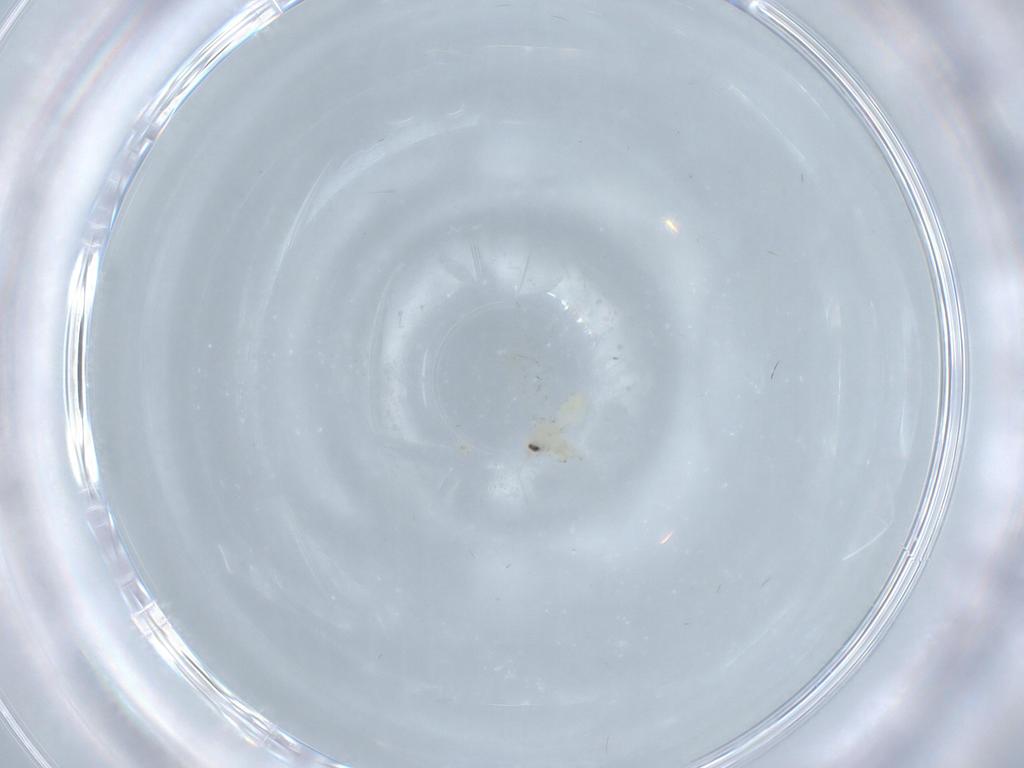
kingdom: Animalia
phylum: Arthropoda
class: Insecta
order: Hemiptera
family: Aleyrodidae
